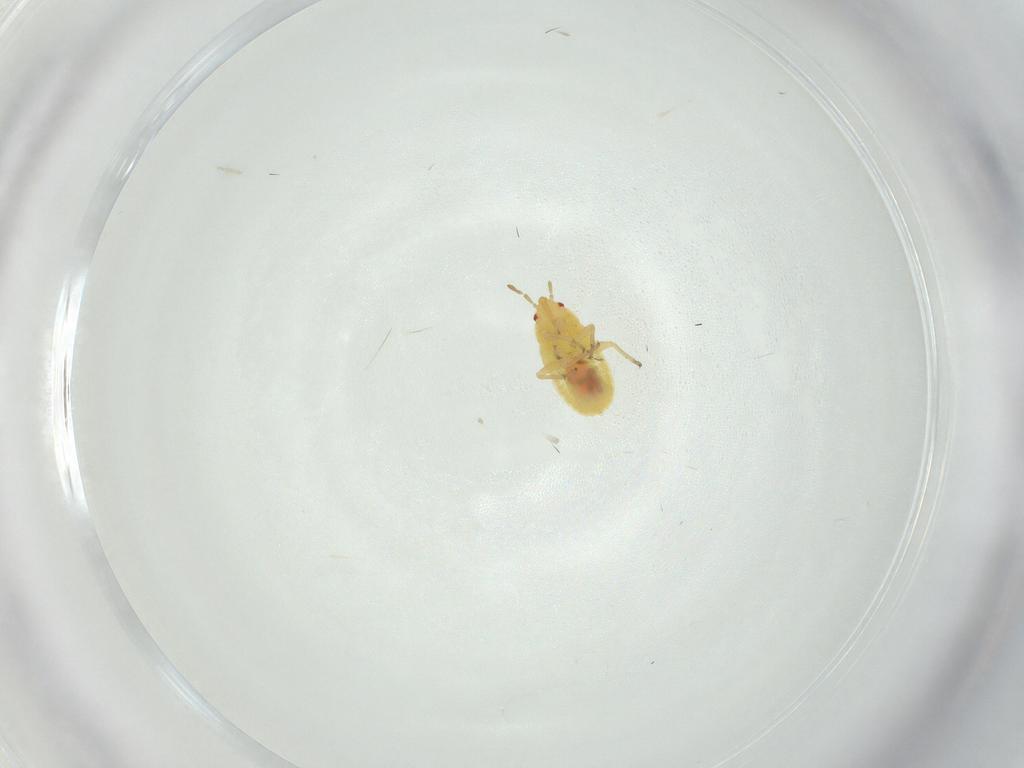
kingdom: Animalia
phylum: Arthropoda
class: Insecta
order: Hemiptera
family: Anthocoridae
